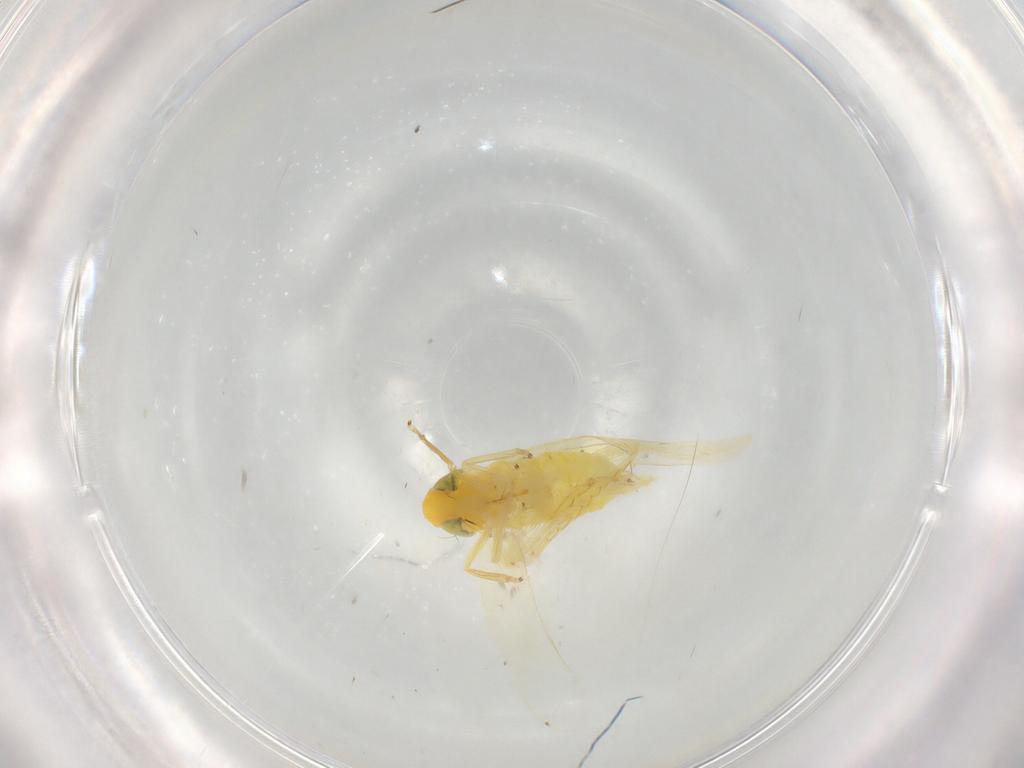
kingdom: Animalia
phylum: Arthropoda
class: Insecta
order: Hemiptera
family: Cicadellidae
